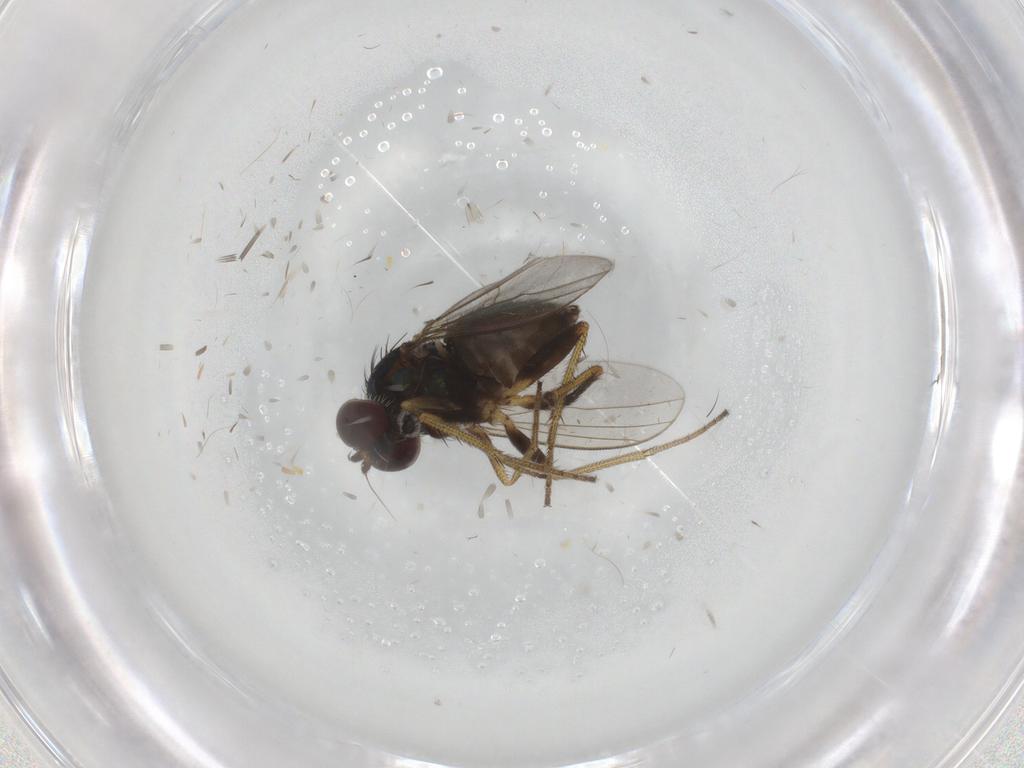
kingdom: Animalia
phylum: Arthropoda
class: Insecta
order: Diptera
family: Dolichopodidae
